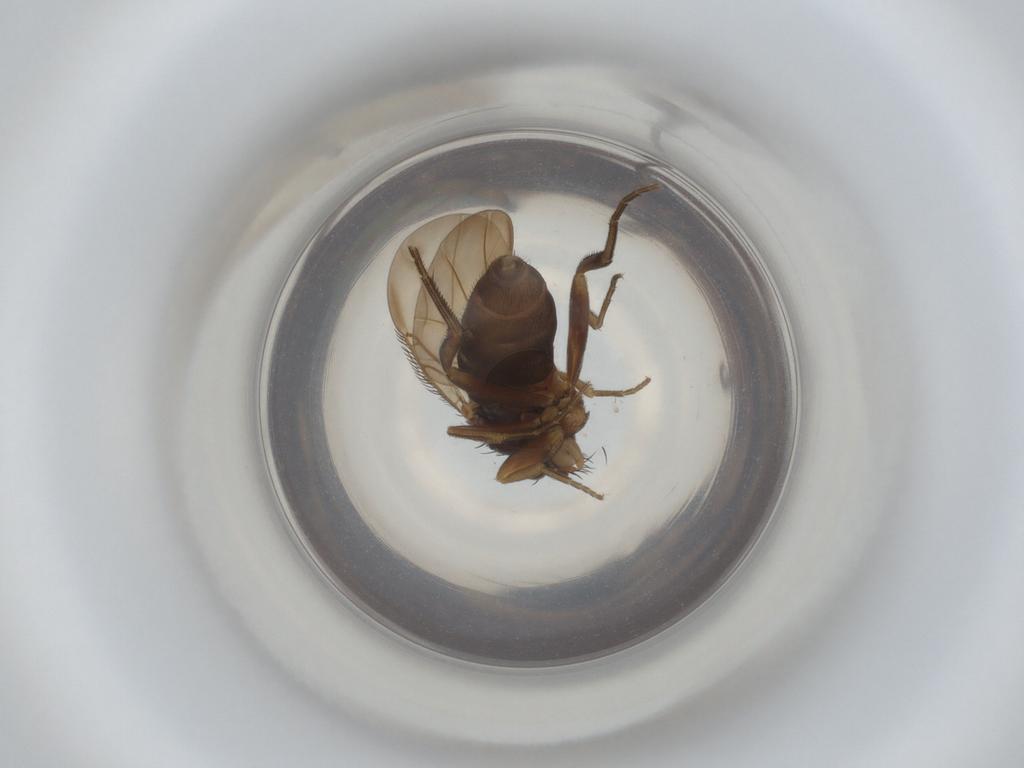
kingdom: Animalia
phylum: Arthropoda
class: Insecta
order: Diptera
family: Phoridae
